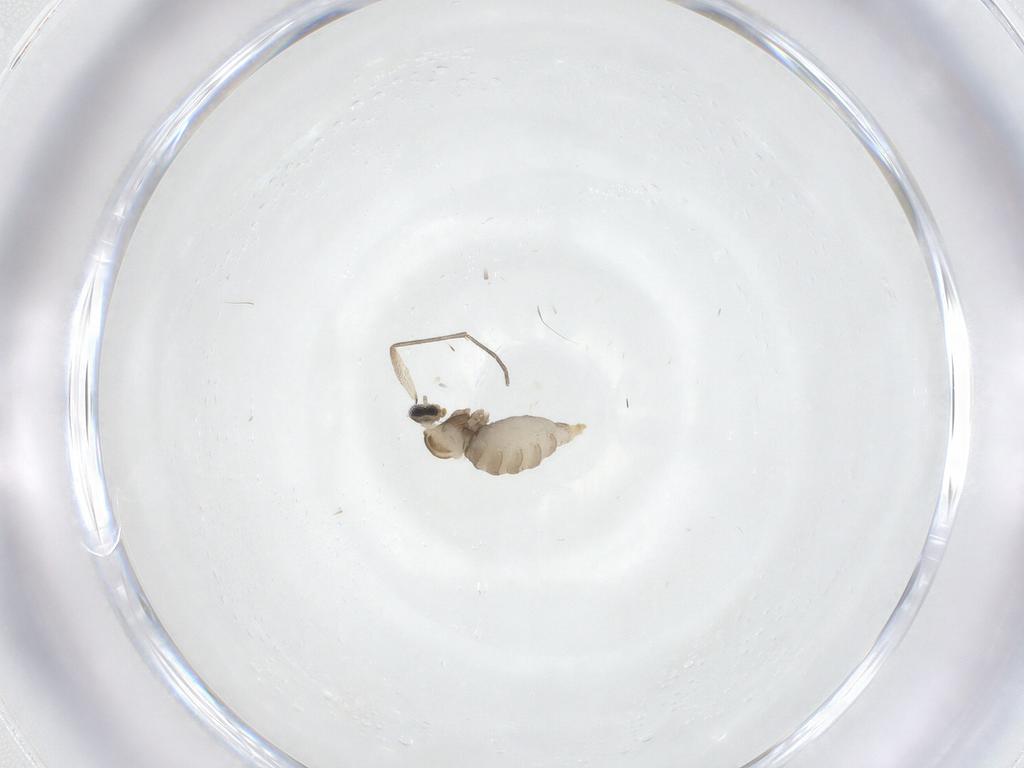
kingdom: Animalia
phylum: Arthropoda
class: Insecta
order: Diptera
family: Cecidomyiidae
